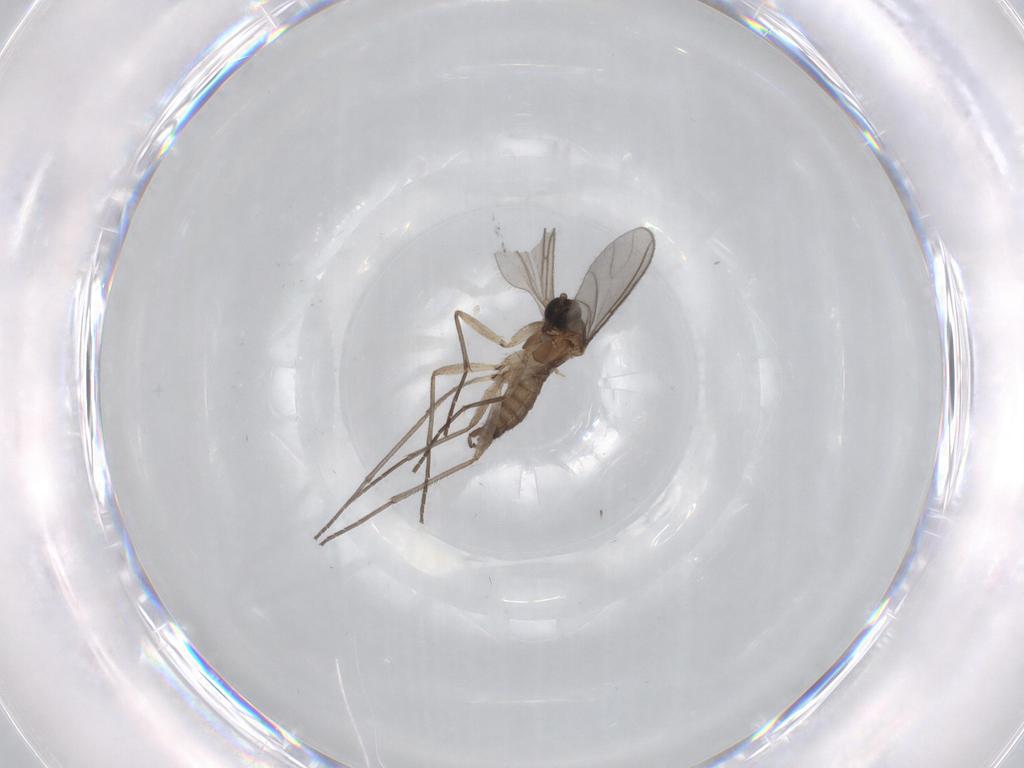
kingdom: Animalia
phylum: Arthropoda
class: Insecta
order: Diptera
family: Sciaridae
